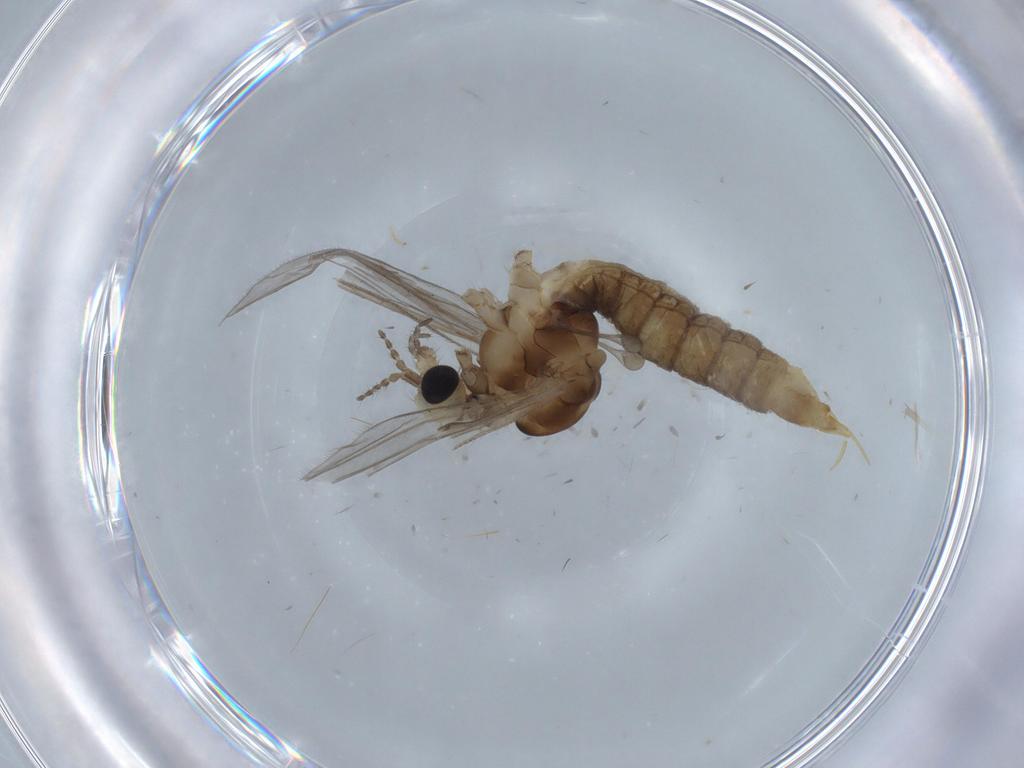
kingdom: Animalia
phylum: Arthropoda
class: Insecta
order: Diptera
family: Limoniidae
